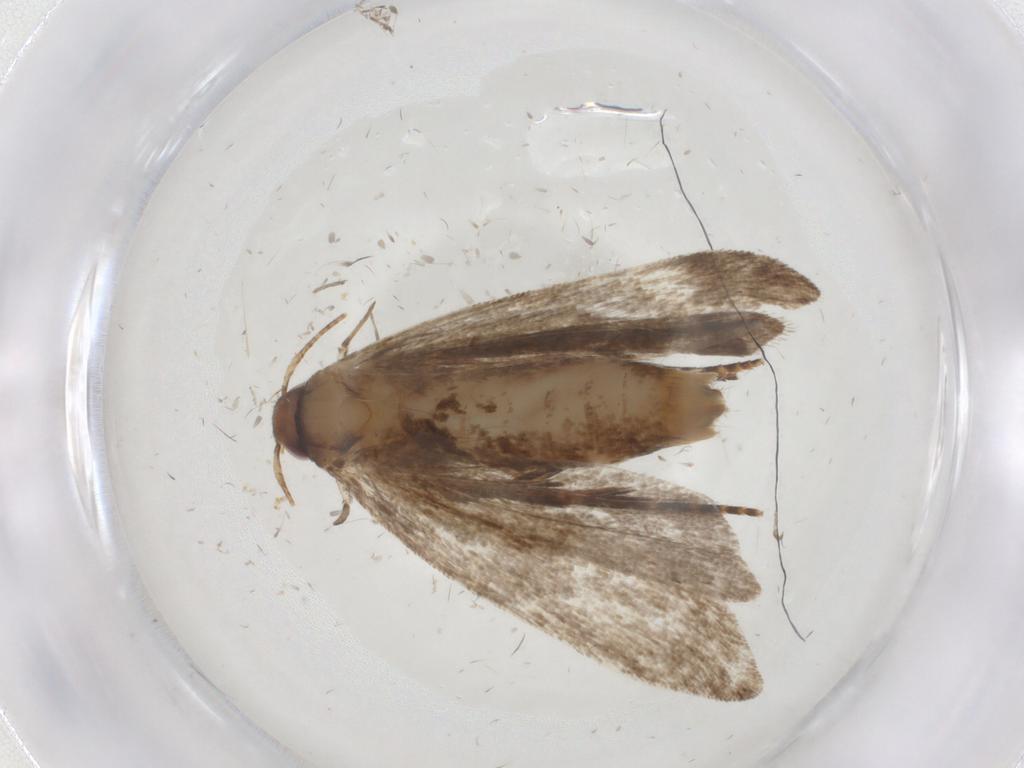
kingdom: Animalia
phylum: Arthropoda
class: Insecta
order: Lepidoptera
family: Gelechiidae
